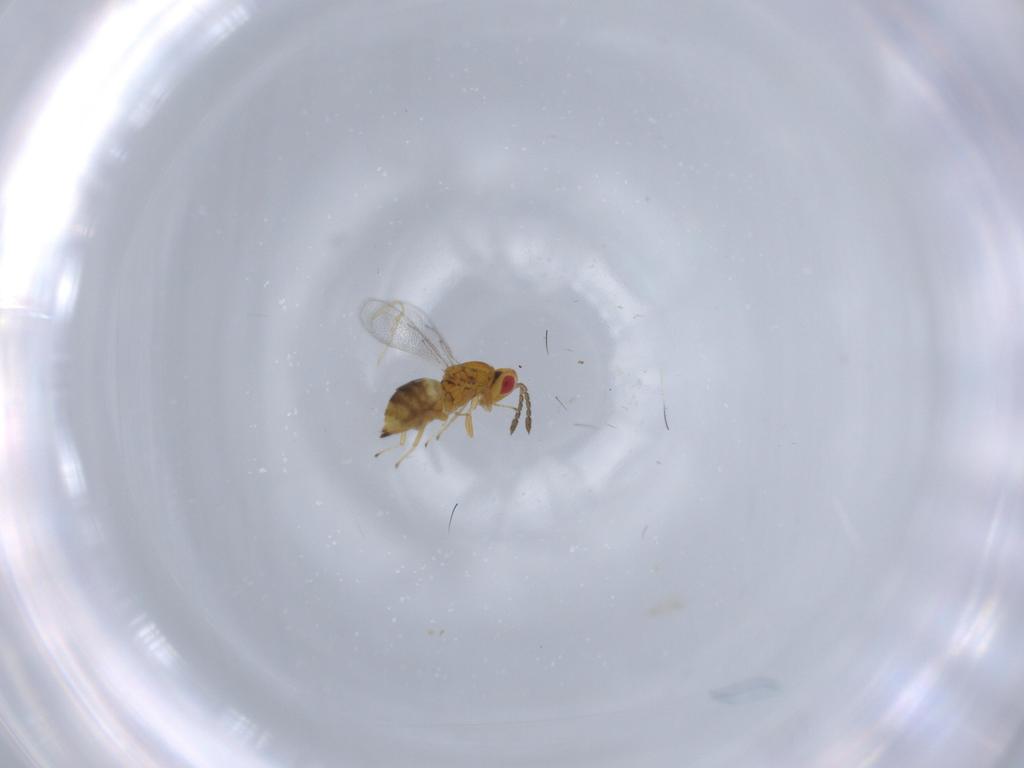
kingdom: Animalia
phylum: Arthropoda
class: Insecta
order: Hymenoptera
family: Eulophidae
